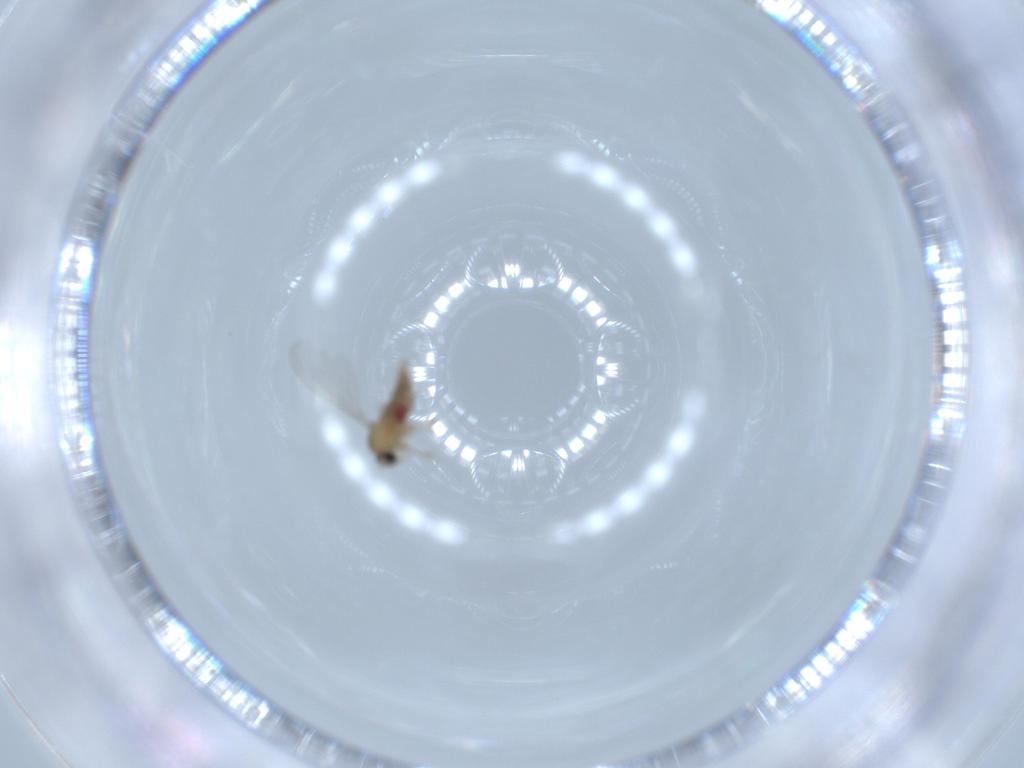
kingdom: Animalia
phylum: Arthropoda
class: Insecta
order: Diptera
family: Cecidomyiidae
